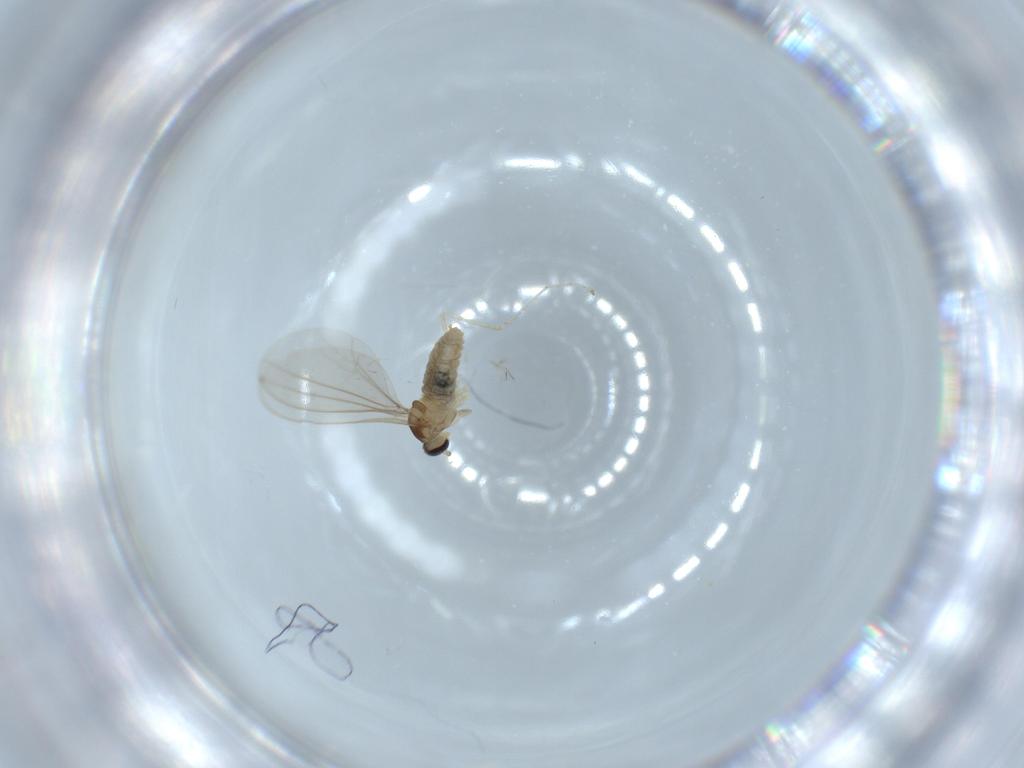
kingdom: Animalia
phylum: Arthropoda
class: Insecta
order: Diptera
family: Cecidomyiidae
